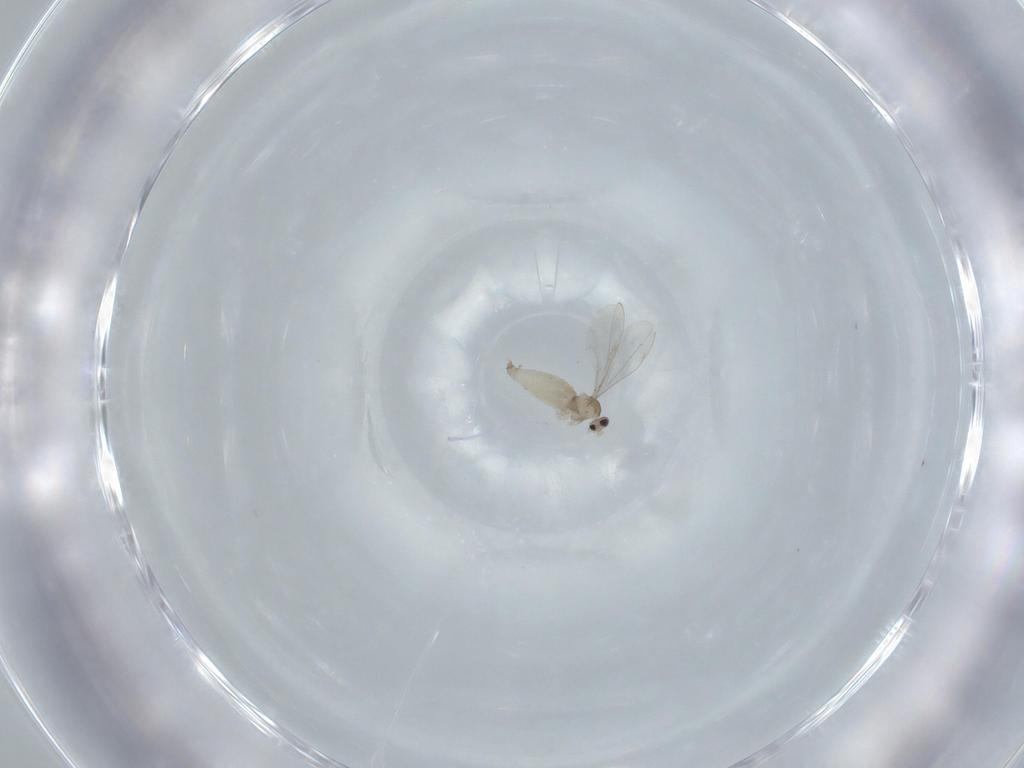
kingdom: Animalia
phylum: Arthropoda
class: Insecta
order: Diptera
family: Cecidomyiidae
